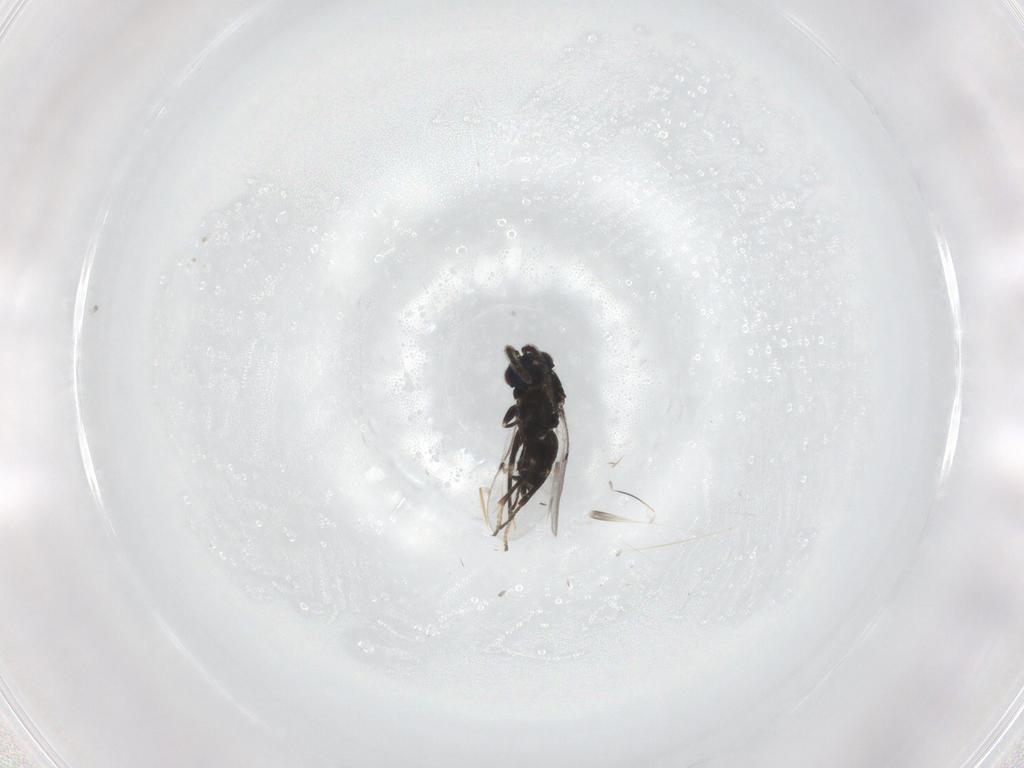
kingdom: Animalia
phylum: Arthropoda
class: Insecta
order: Hymenoptera
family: Encyrtidae
